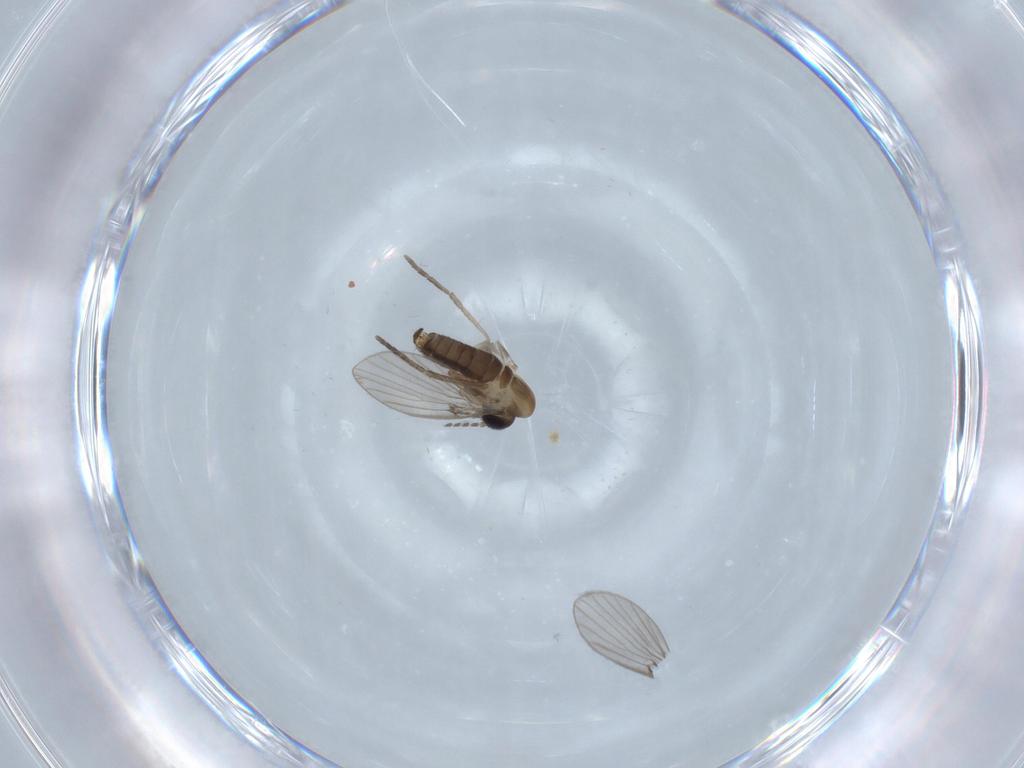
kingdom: Animalia
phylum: Arthropoda
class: Insecta
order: Diptera
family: Psychodidae
